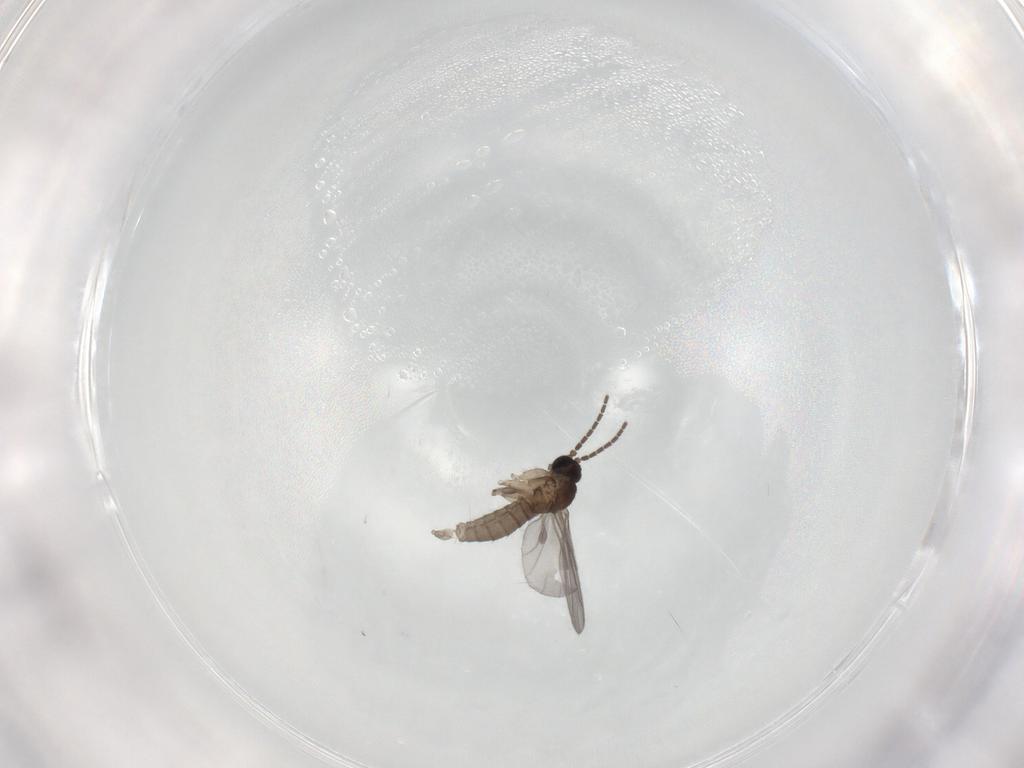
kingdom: Animalia
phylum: Arthropoda
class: Insecta
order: Diptera
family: Sciaridae
